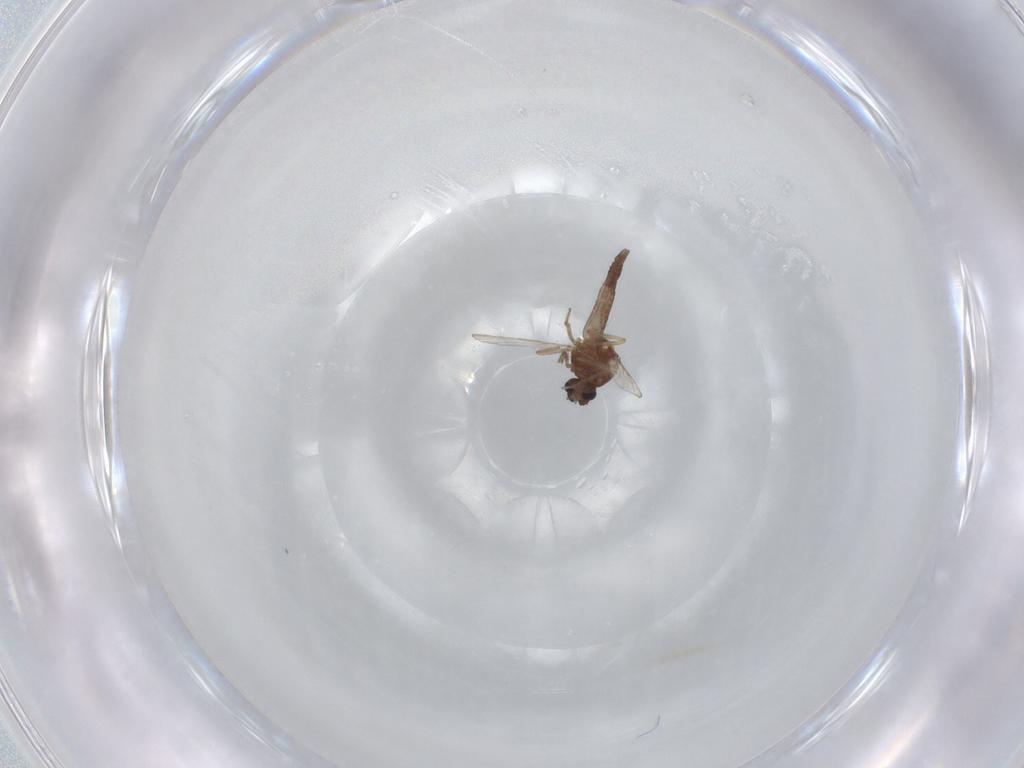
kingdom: Animalia
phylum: Arthropoda
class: Insecta
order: Diptera
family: Ceratopogonidae
